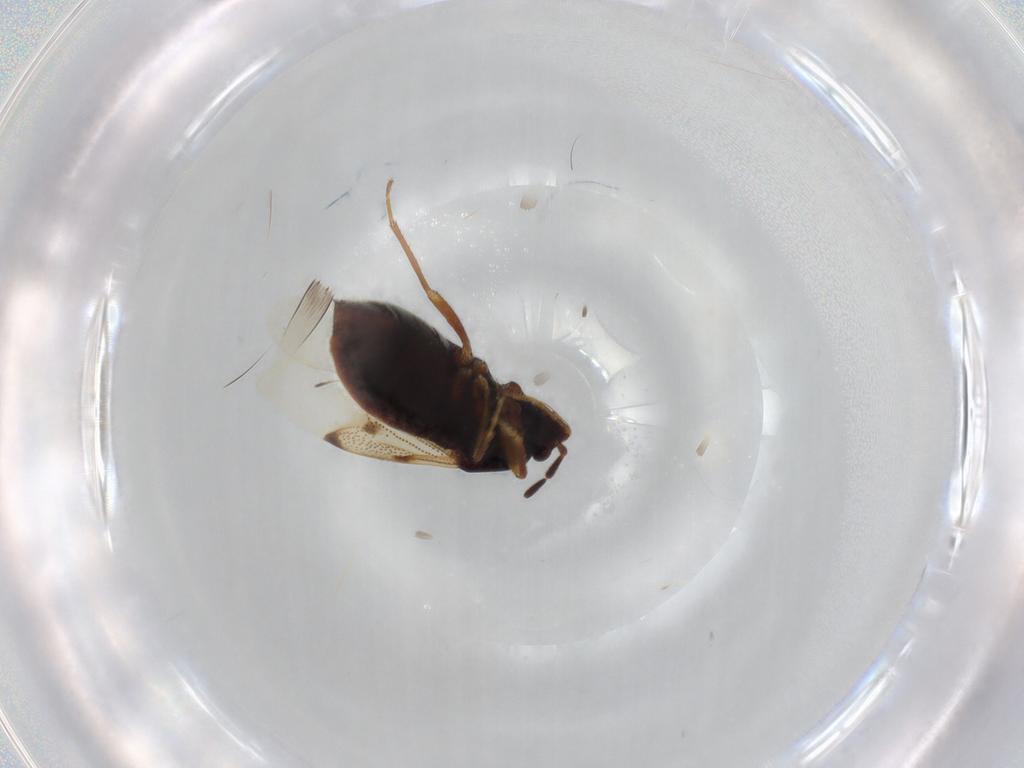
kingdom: Animalia
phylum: Arthropoda
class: Insecta
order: Hemiptera
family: Rhyparochromidae
